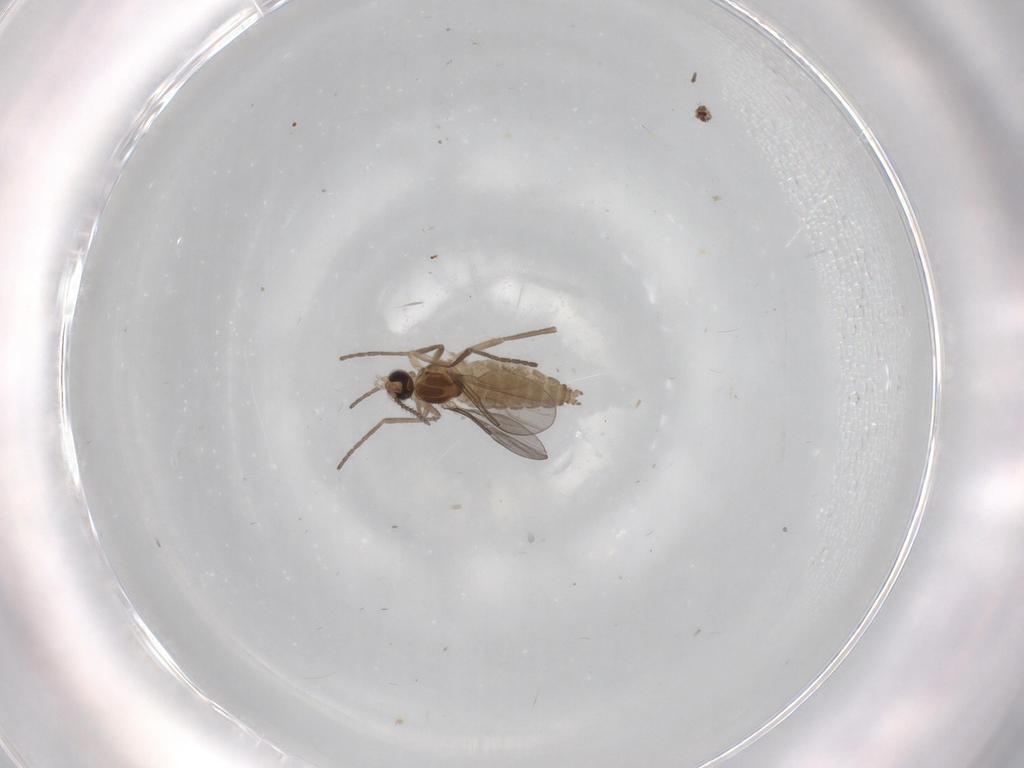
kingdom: Animalia
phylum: Arthropoda
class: Insecta
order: Diptera
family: Cecidomyiidae
